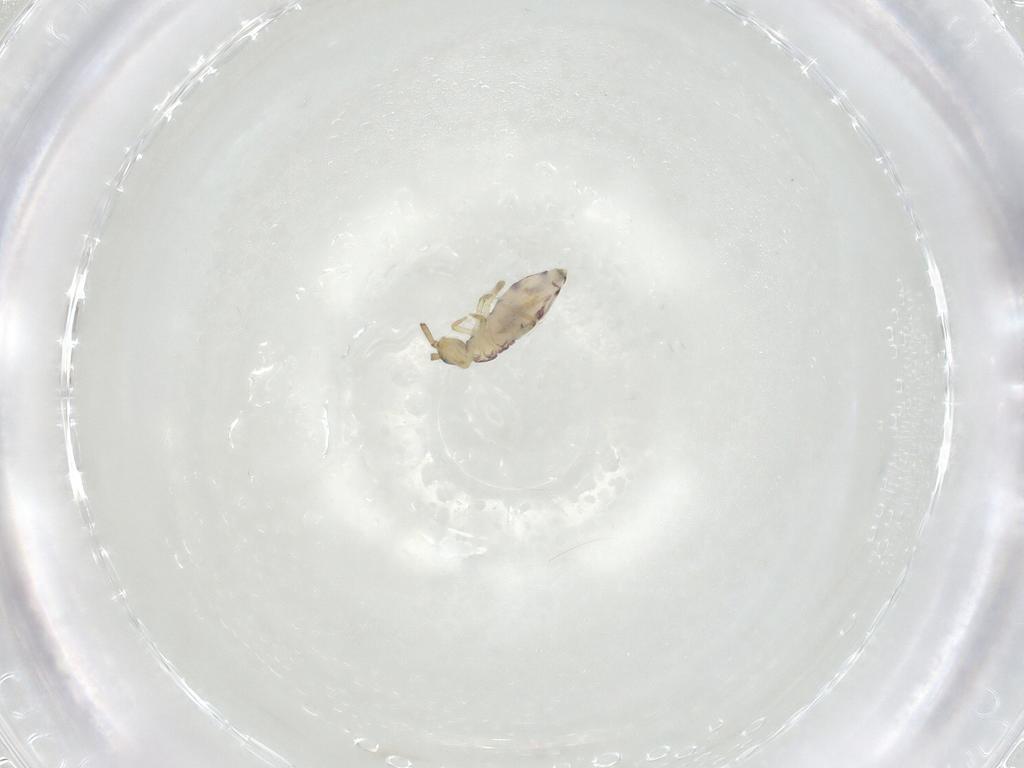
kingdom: Animalia
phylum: Arthropoda
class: Collembola
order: Entomobryomorpha
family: Entomobryidae
